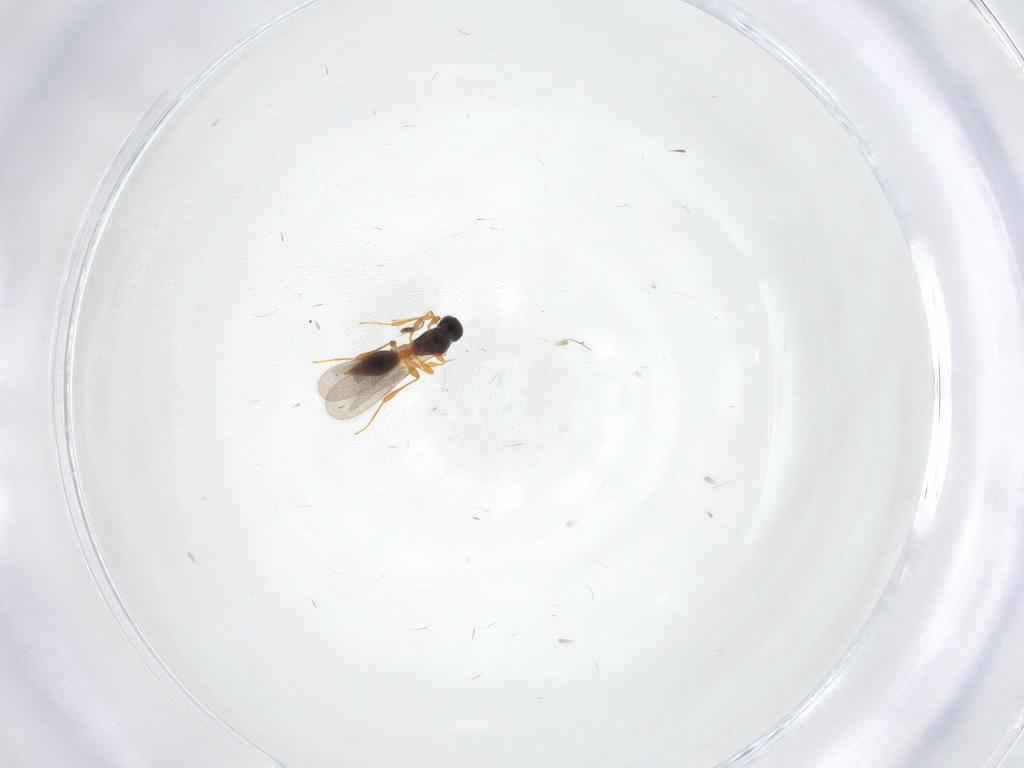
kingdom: Animalia
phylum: Arthropoda
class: Insecta
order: Hymenoptera
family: Platygastridae
